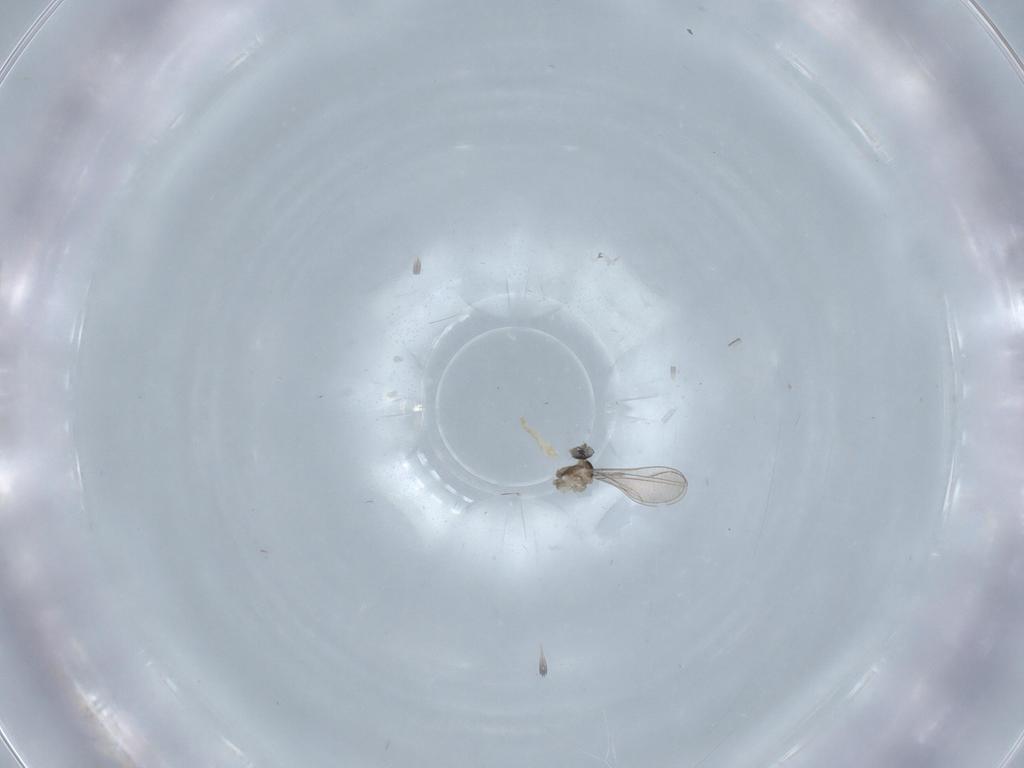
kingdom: Animalia
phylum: Arthropoda
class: Insecta
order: Diptera
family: Cecidomyiidae
